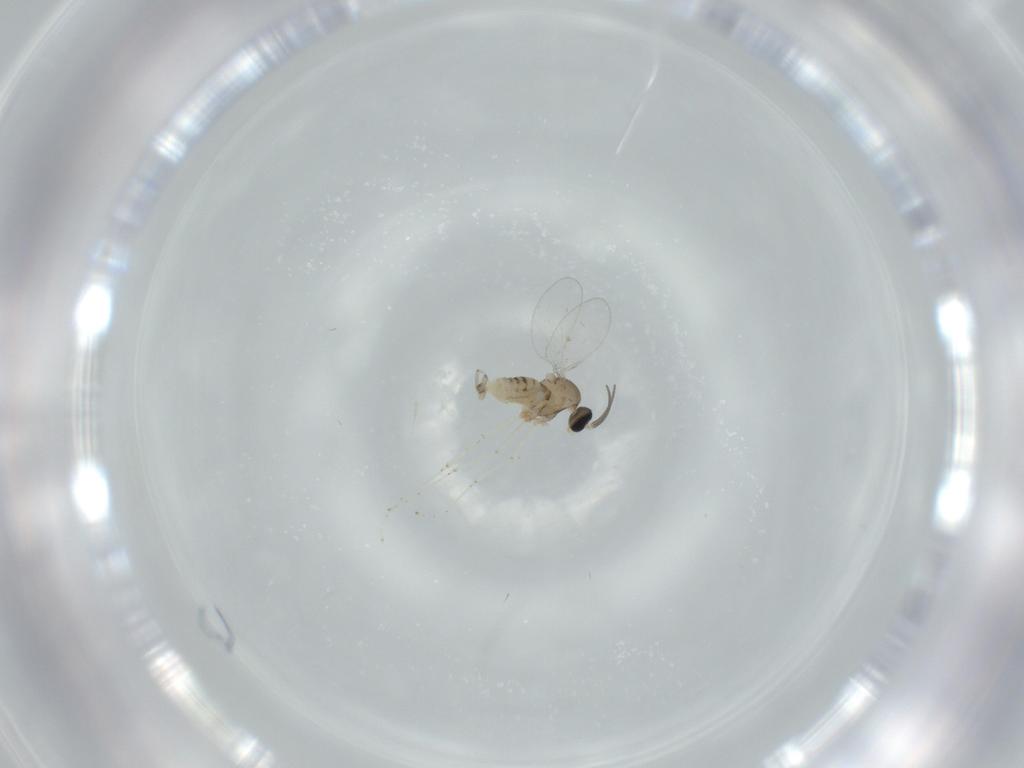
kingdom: Animalia
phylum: Arthropoda
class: Insecta
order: Diptera
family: Cecidomyiidae
